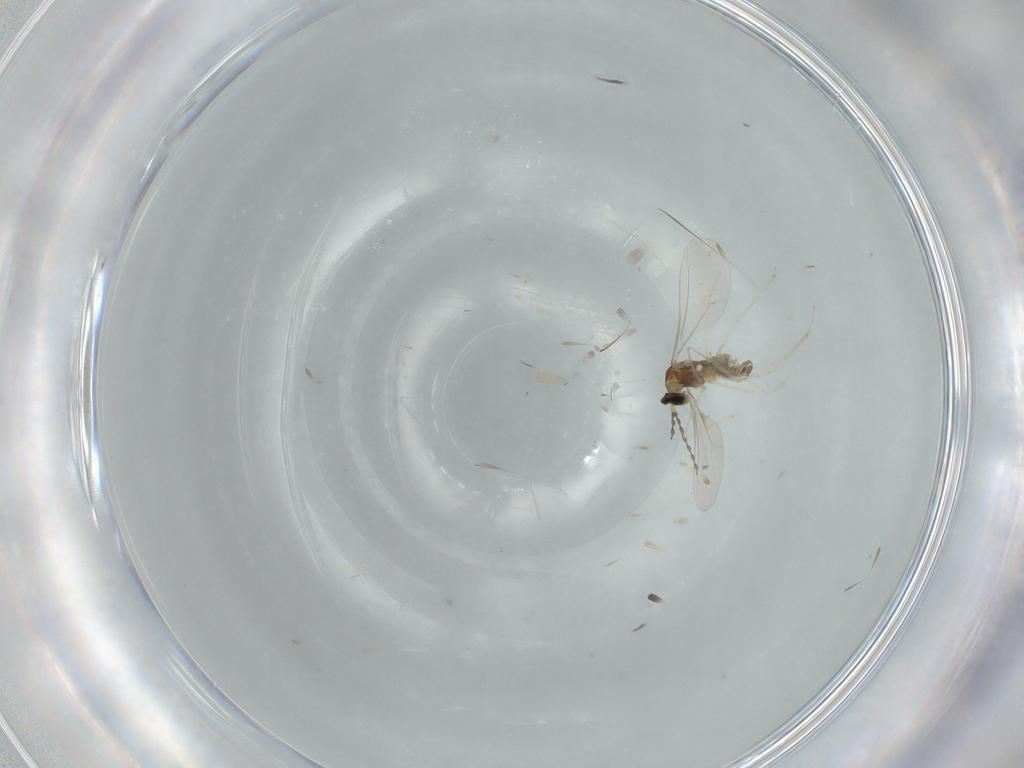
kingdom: Animalia
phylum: Arthropoda
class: Insecta
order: Diptera
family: Cecidomyiidae
